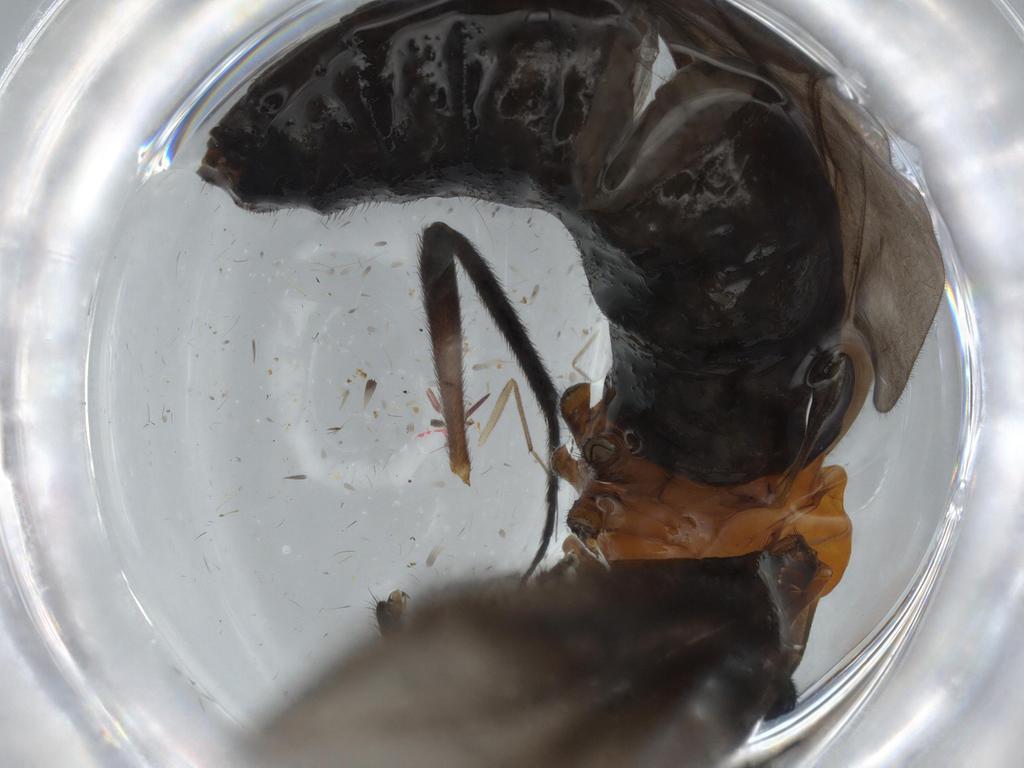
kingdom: Animalia
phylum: Arthropoda
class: Insecta
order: Diptera
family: Bibionidae
